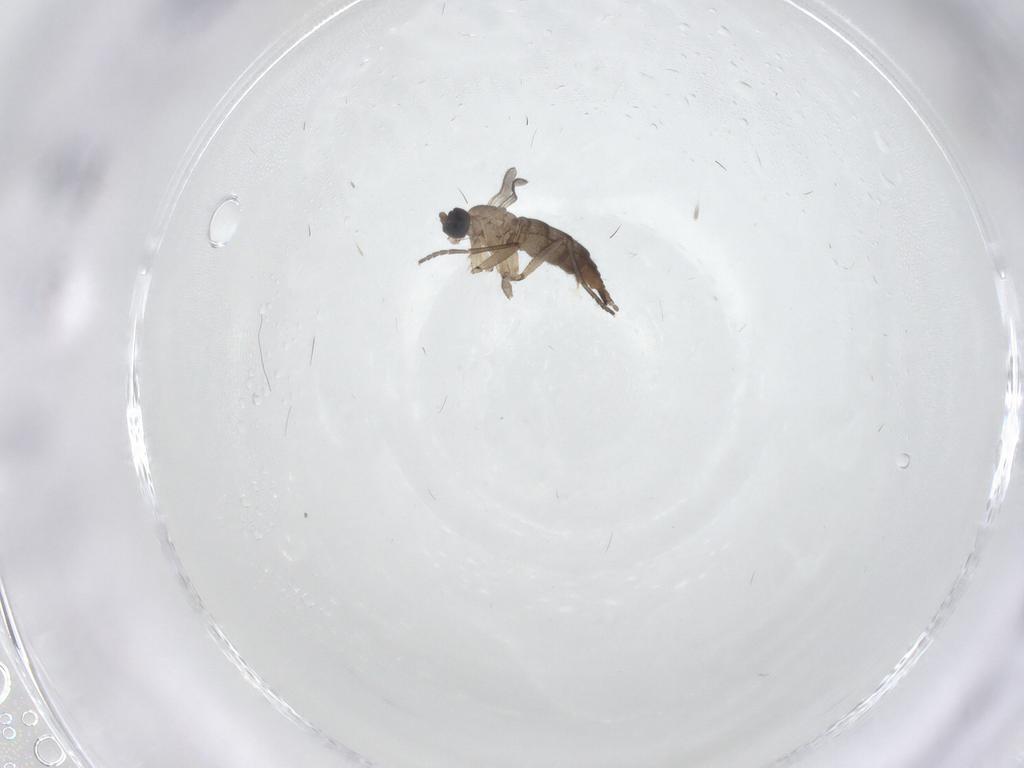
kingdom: Animalia
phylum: Arthropoda
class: Insecta
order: Diptera
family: Sciaridae
